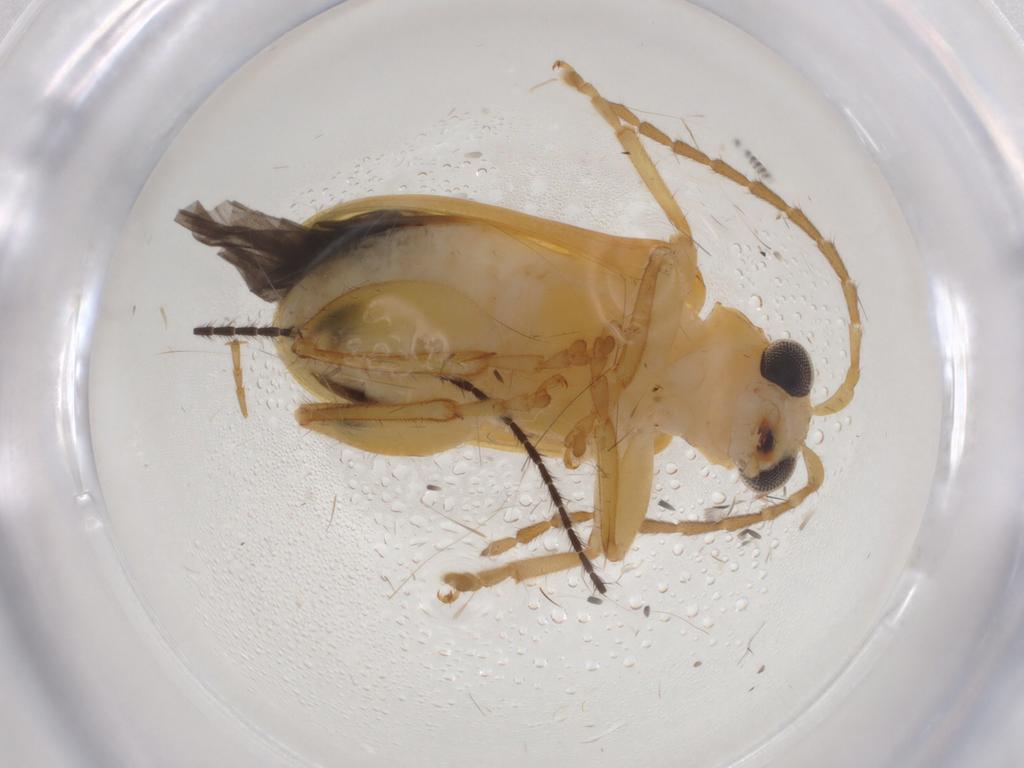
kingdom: Animalia
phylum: Arthropoda
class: Insecta
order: Coleoptera
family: Chrysomelidae
